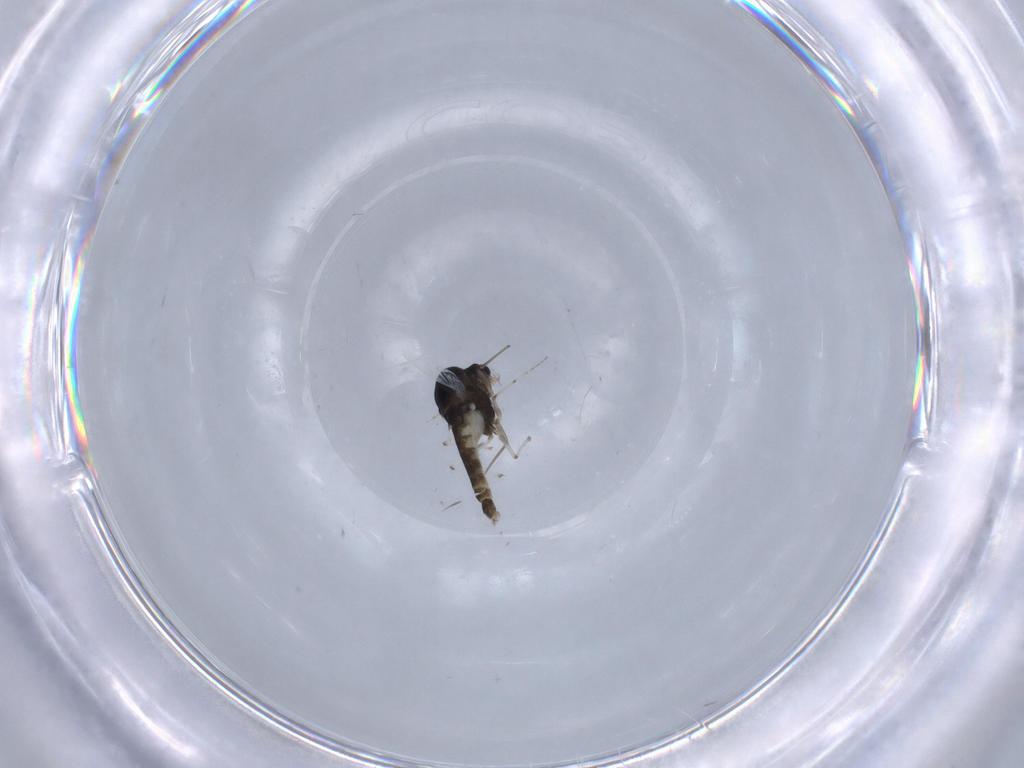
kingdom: Animalia
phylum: Arthropoda
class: Insecta
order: Diptera
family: Chironomidae
